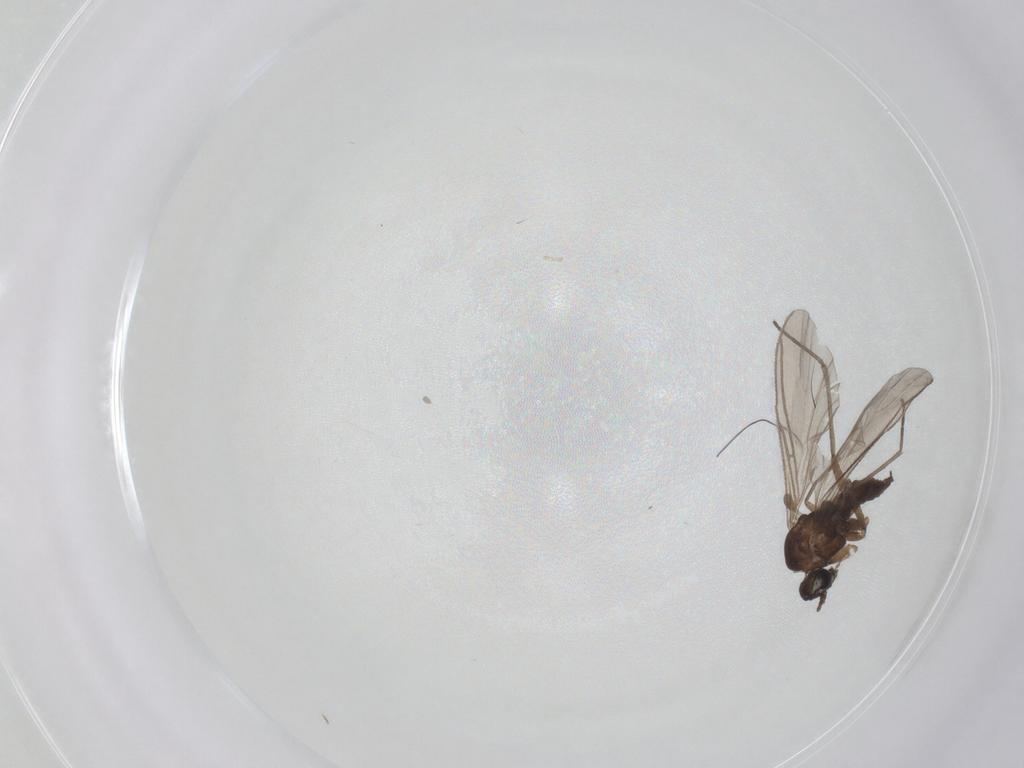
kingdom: Animalia
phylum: Arthropoda
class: Insecta
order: Diptera
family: Sciaridae
